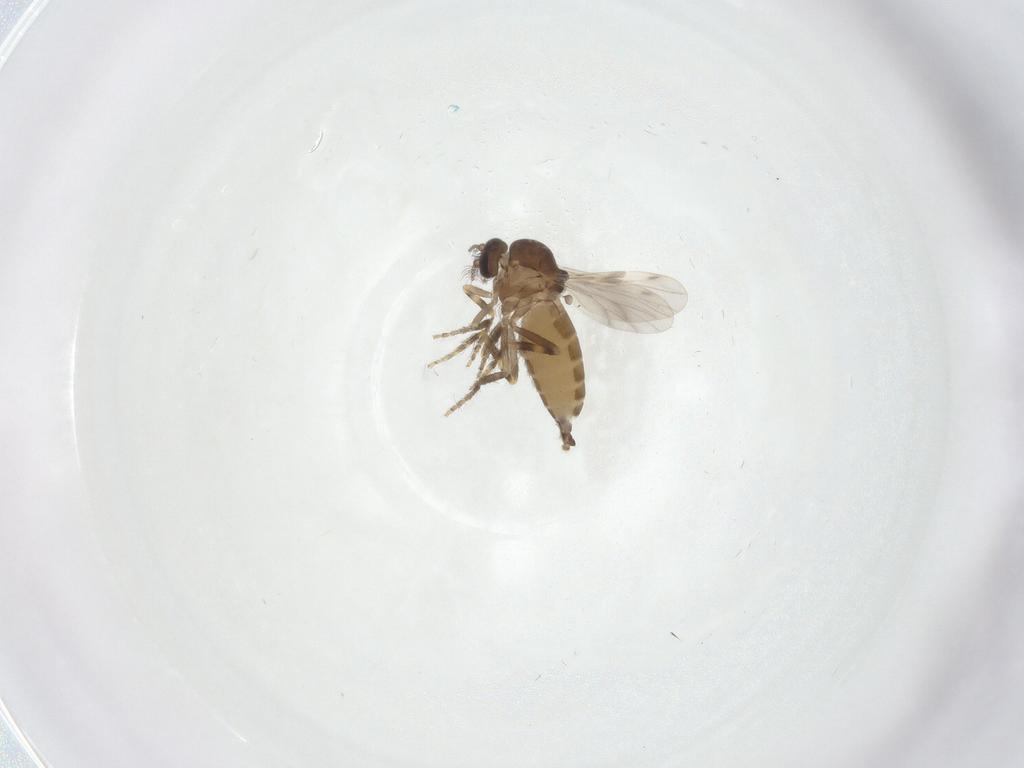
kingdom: Animalia
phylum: Arthropoda
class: Insecta
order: Diptera
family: Ceratopogonidae
